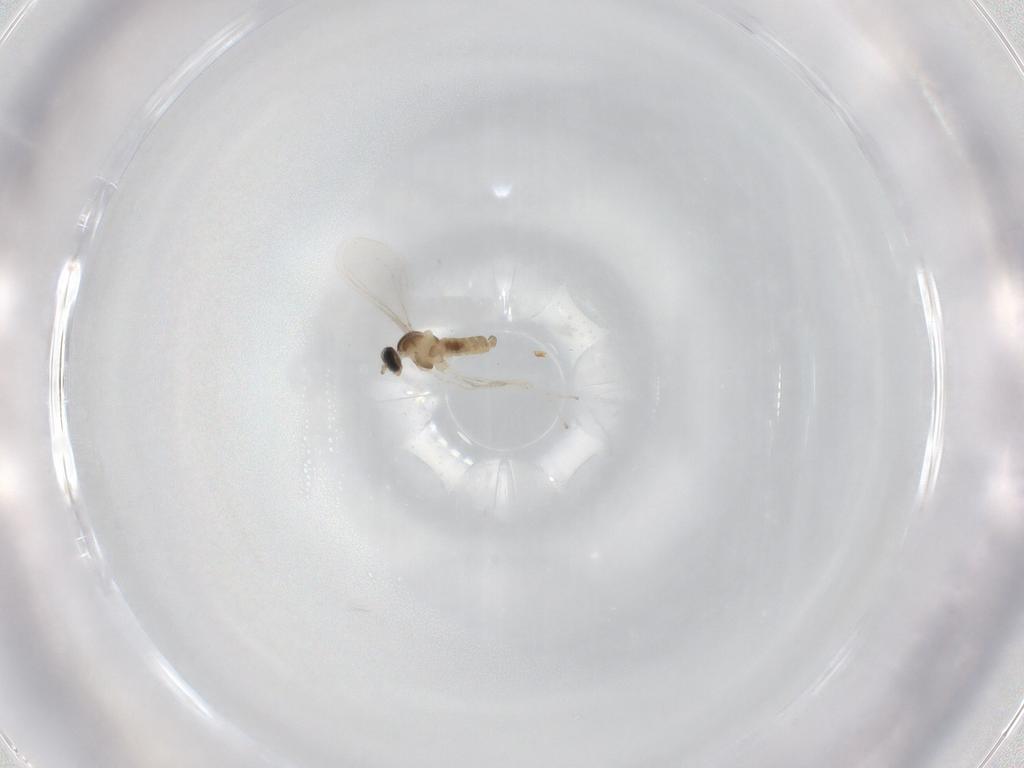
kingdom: Animalia
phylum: Arthropoda
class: Insecta
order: Diptera
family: Cecidomyiidae
